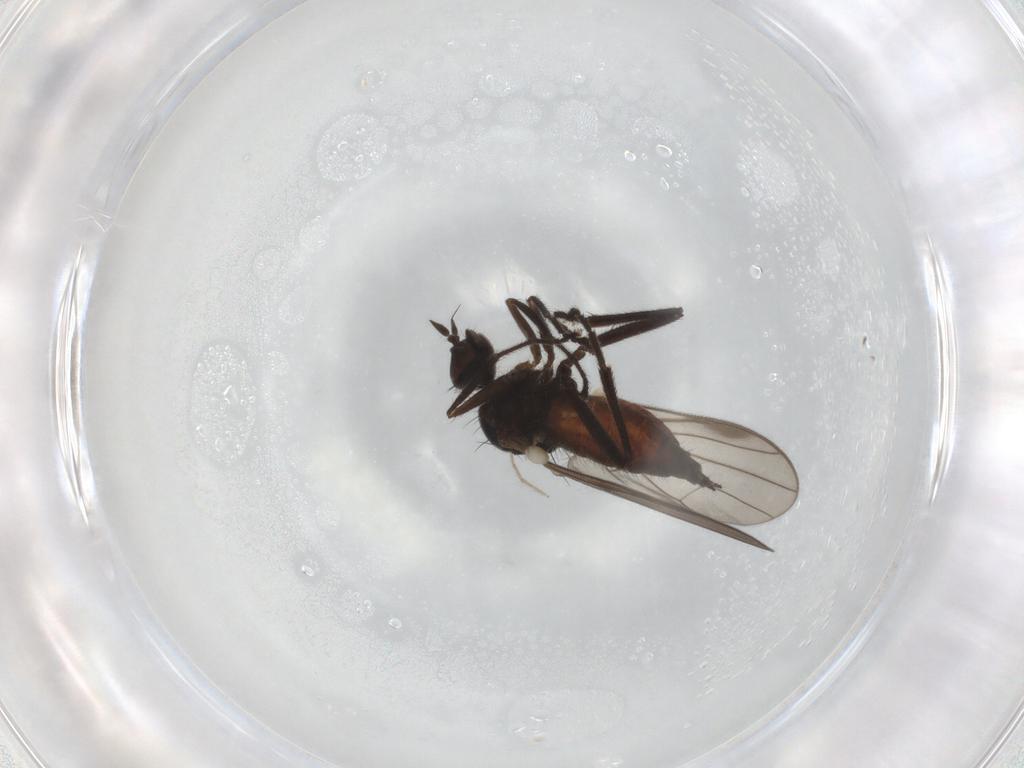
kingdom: Animalia
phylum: Arthropoda
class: Insecta
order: Diptera
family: Hybotidae
